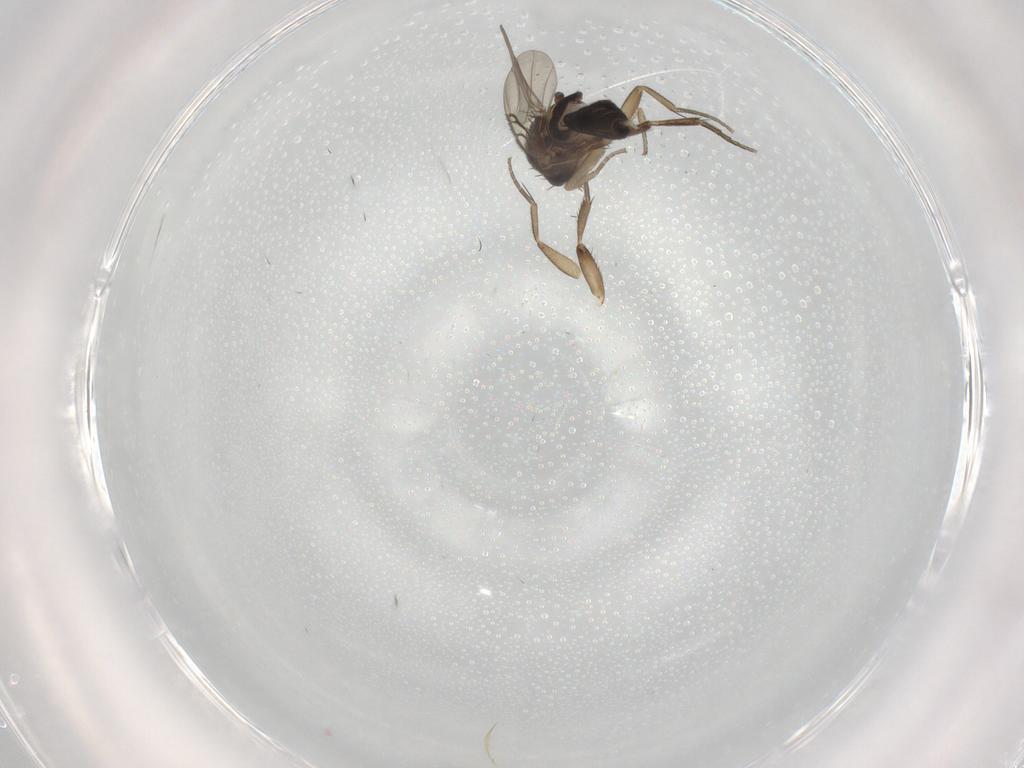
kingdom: Animalia
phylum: Arthropoda
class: Insecta
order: Diptera
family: Phoridae
